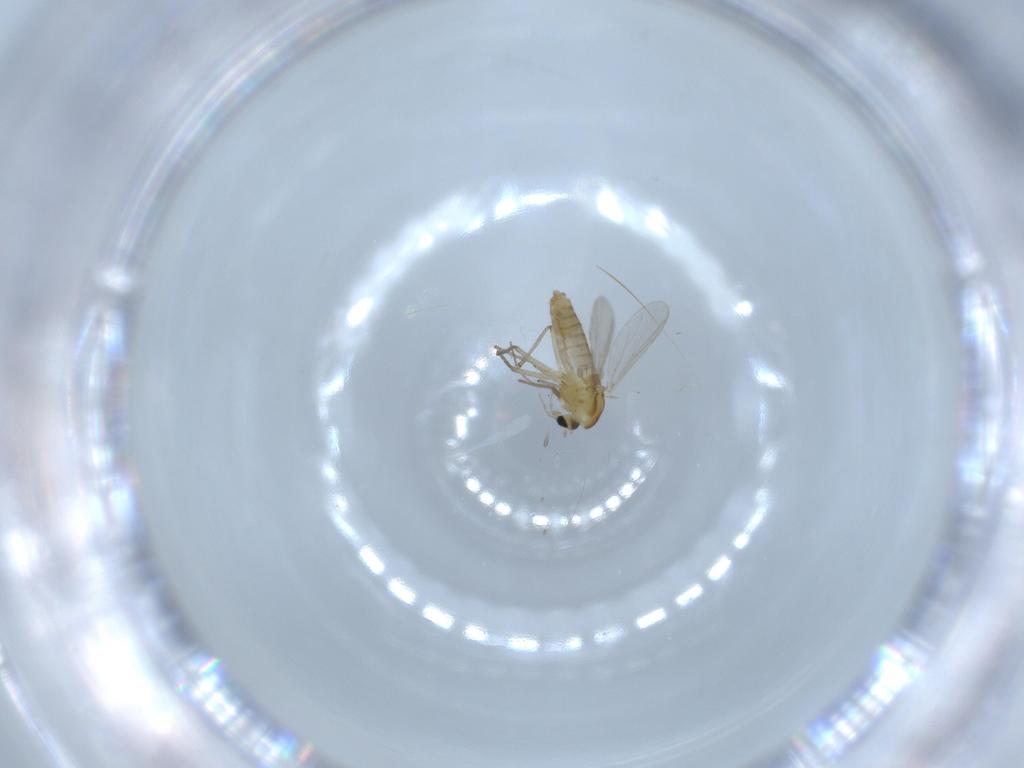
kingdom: Animalia
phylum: Arthropoda
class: Insecta
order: Diptera
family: Chironomidae
